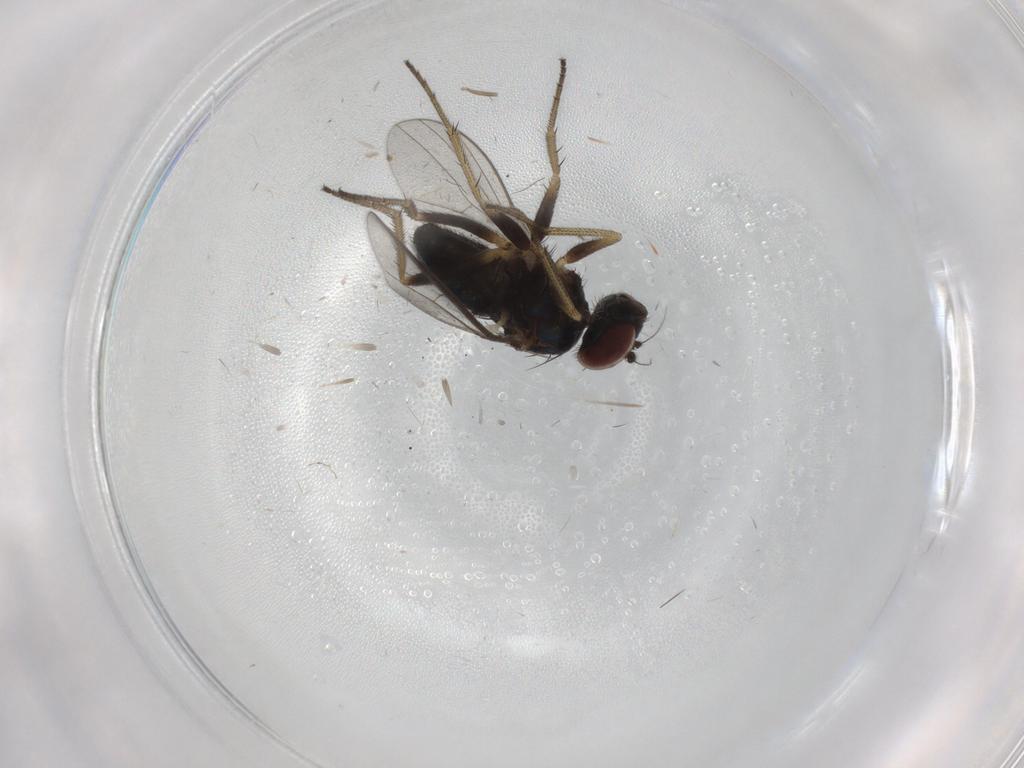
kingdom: Animalia
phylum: Arthropoda
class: Insecta
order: Diptera
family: Dolichopodidae
